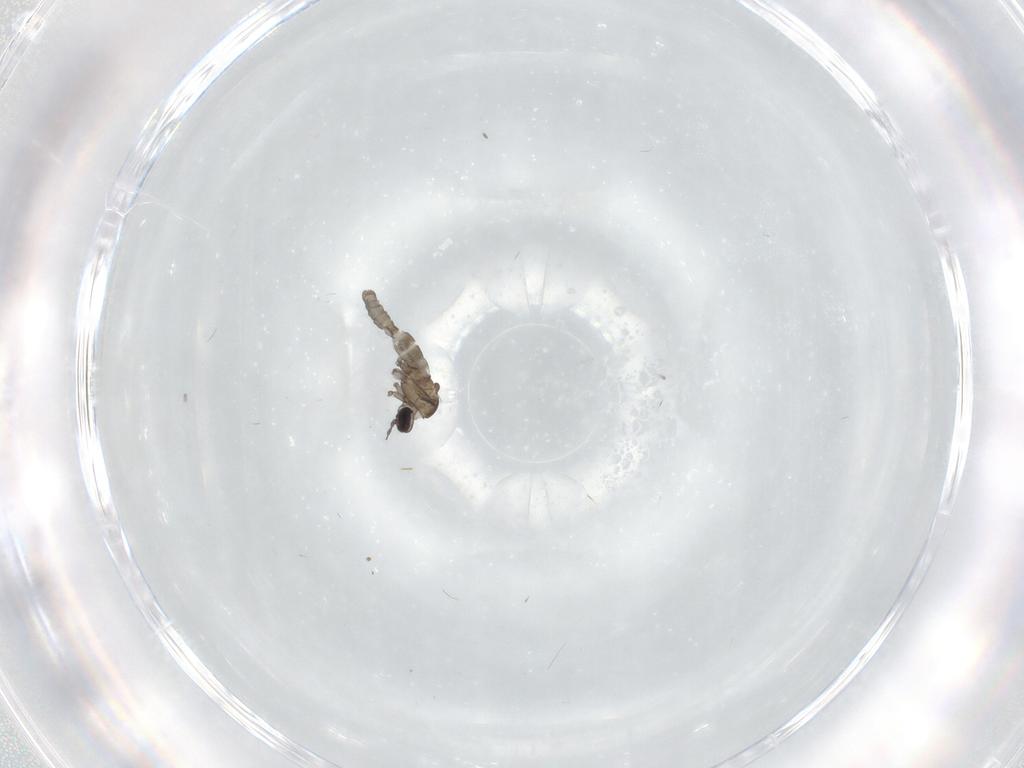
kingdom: Animalia
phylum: Arthropoda
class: Insecta
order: Diptera
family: Cecidomyiidae
